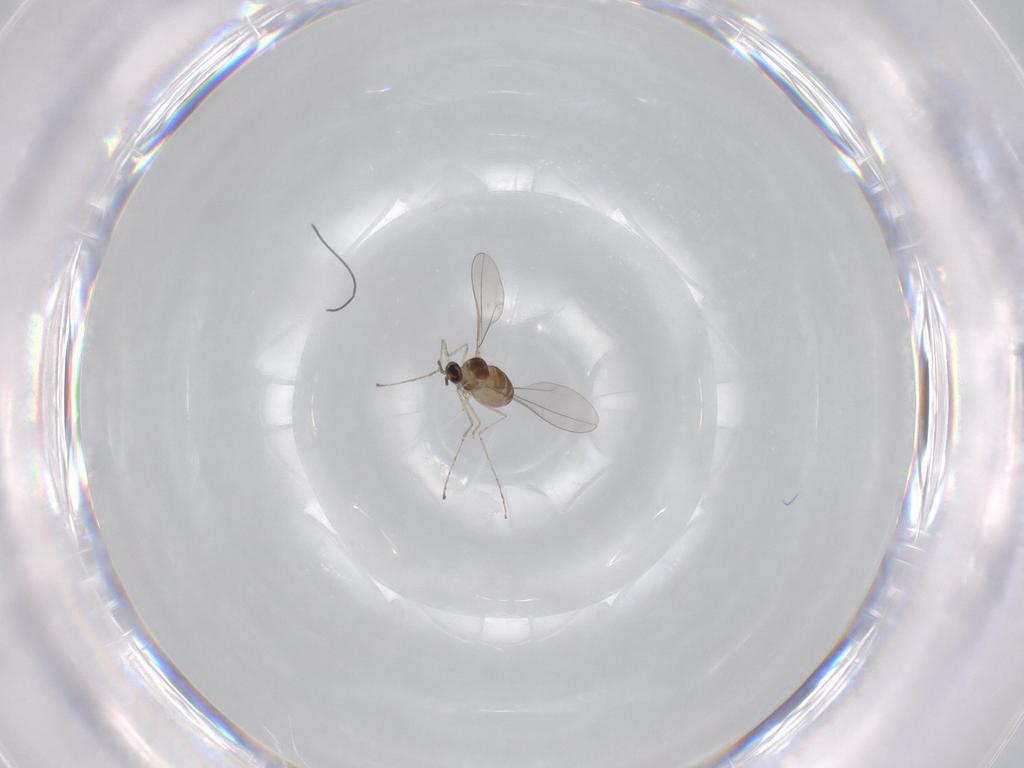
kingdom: Animalia
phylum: Arthropoda
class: Insecta
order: Diptera
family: Cecidomyiidae
